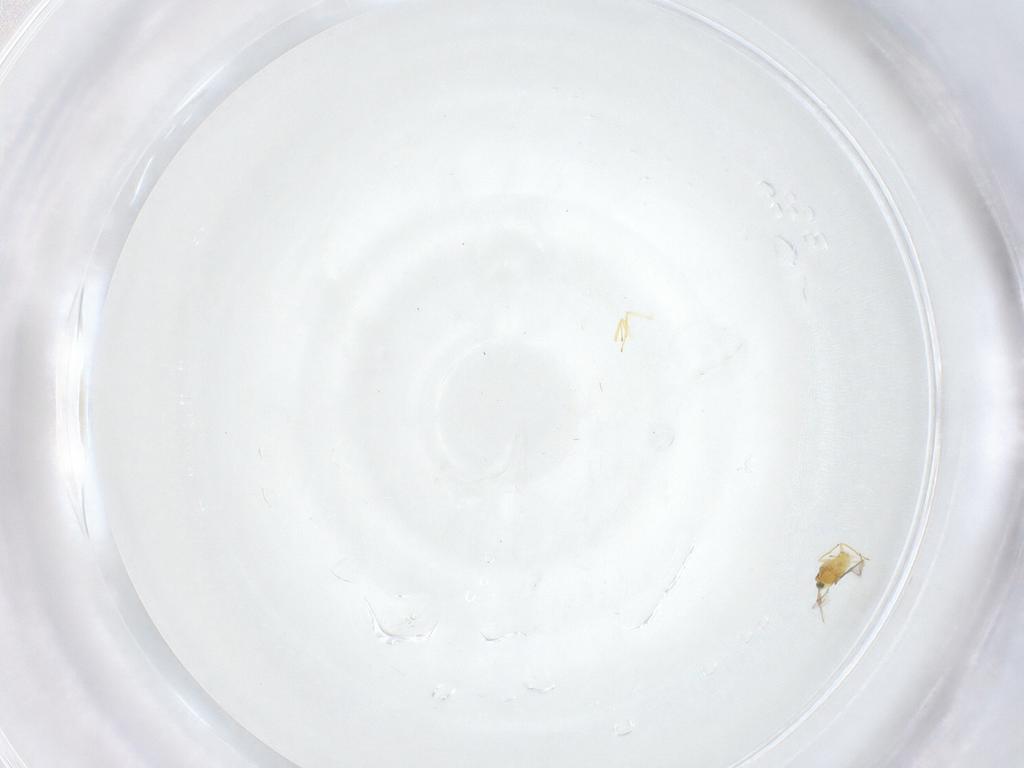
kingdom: Animalia
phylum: Arthropoda
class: Insecta
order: Hymenoptera
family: Aphelinidae
